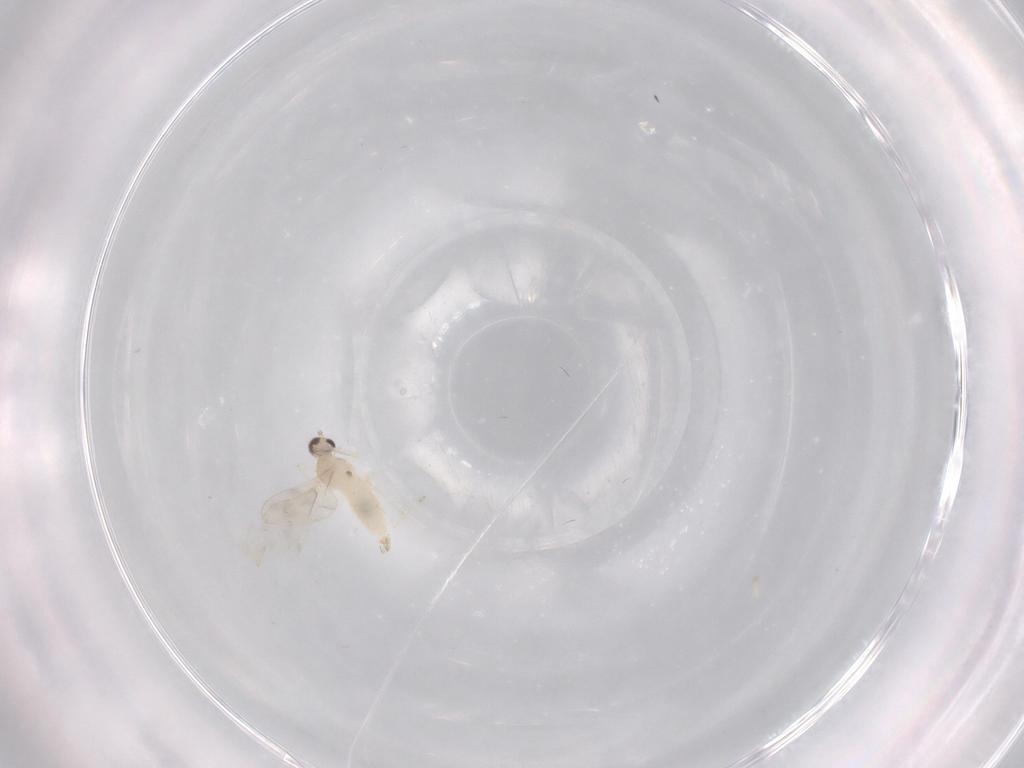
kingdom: Animalia
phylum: Arthropoda
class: Insecta
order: Diptera
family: Cecidomyiidae
